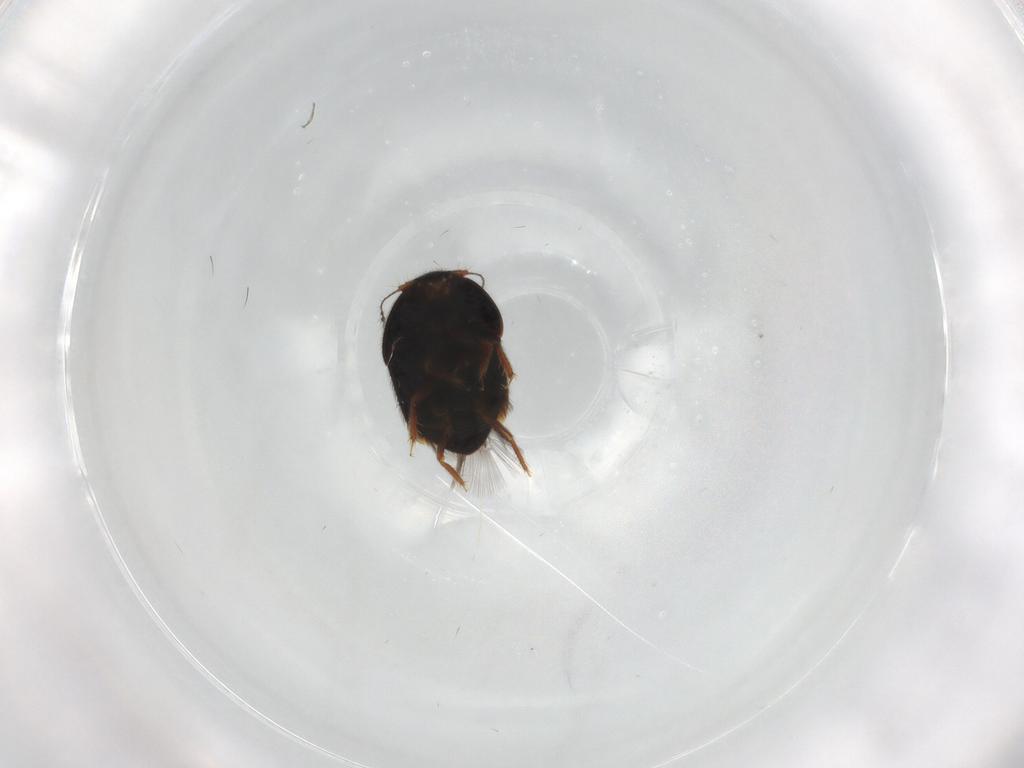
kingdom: Animalia
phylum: Arthropoda
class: Insecta
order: Coleoptera
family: Ptiliidae
